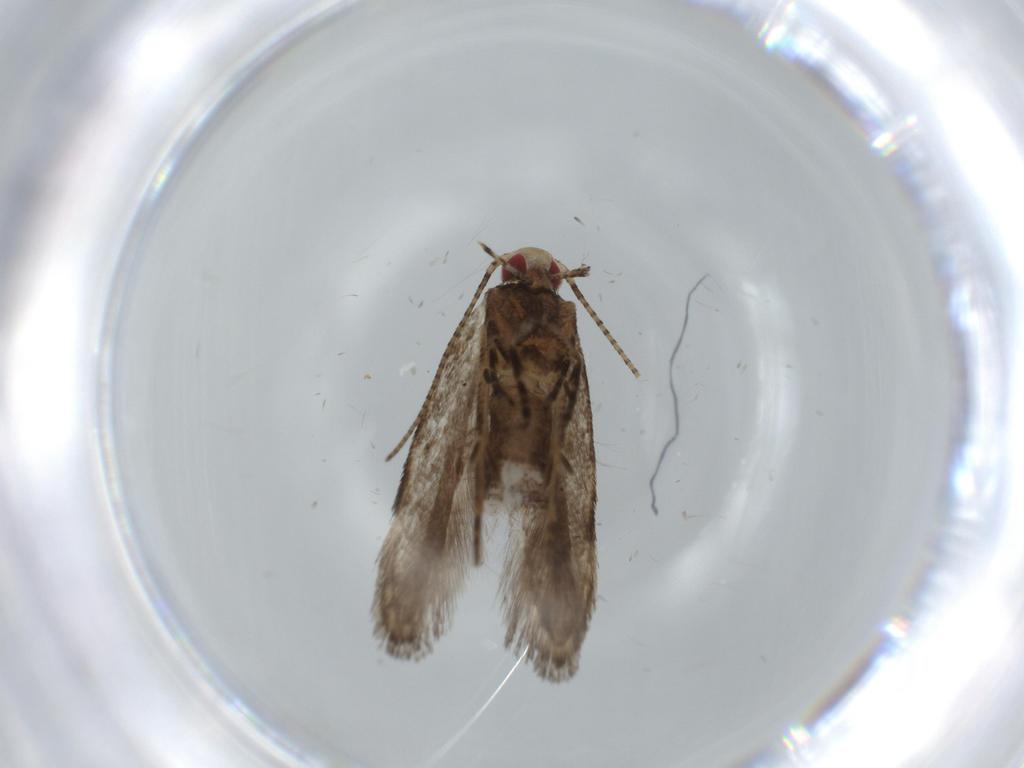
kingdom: Animalia
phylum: Arthropoda
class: Insecta
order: Lepidoptera
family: Cosmopterigidae
